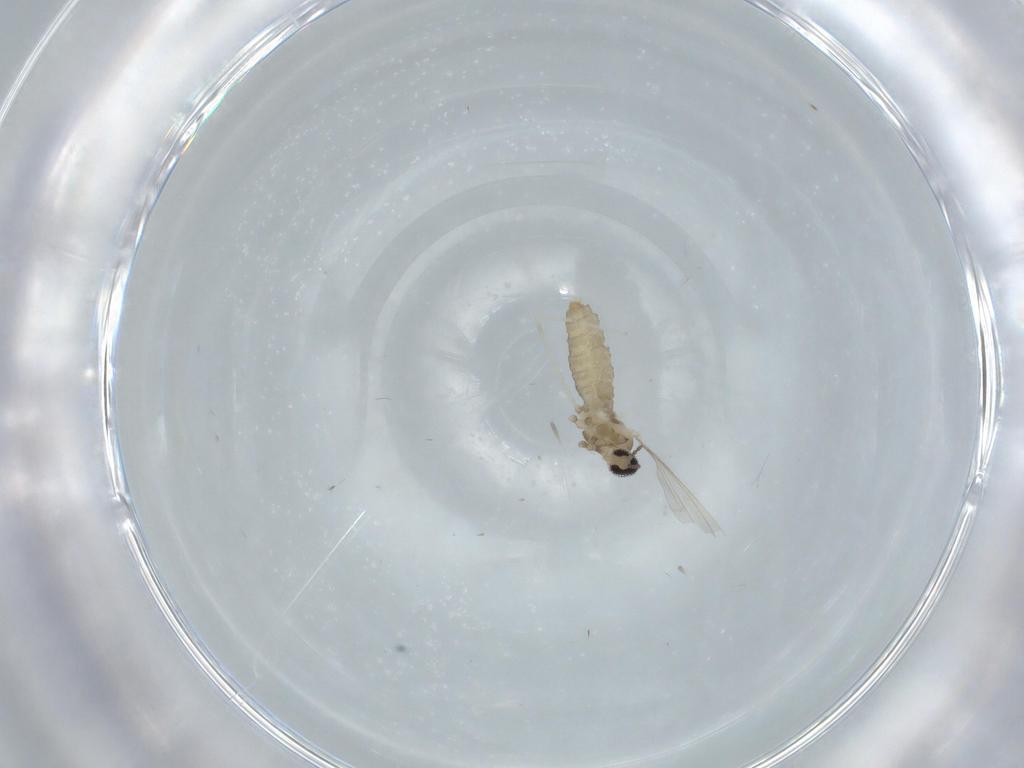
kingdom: Animalia
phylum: Arthropoda
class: Insecta
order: Diptera
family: Cecidomyiidae
